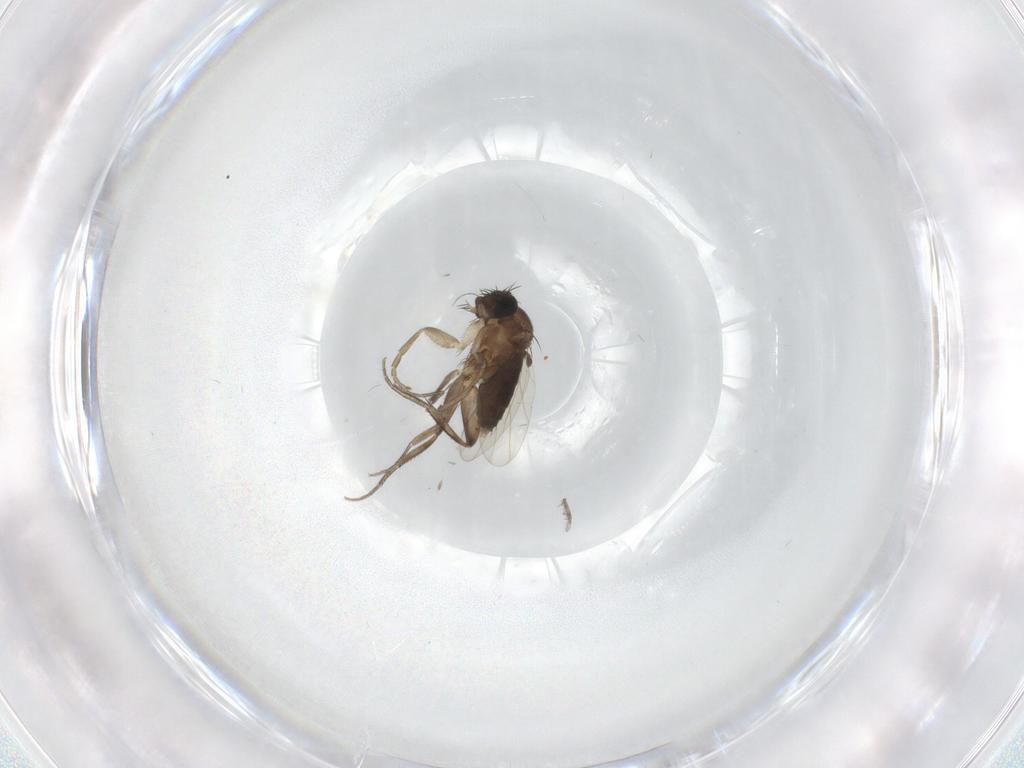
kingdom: Animalia
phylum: Arthropoda
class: Insecta
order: Diptera
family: Phoridae
